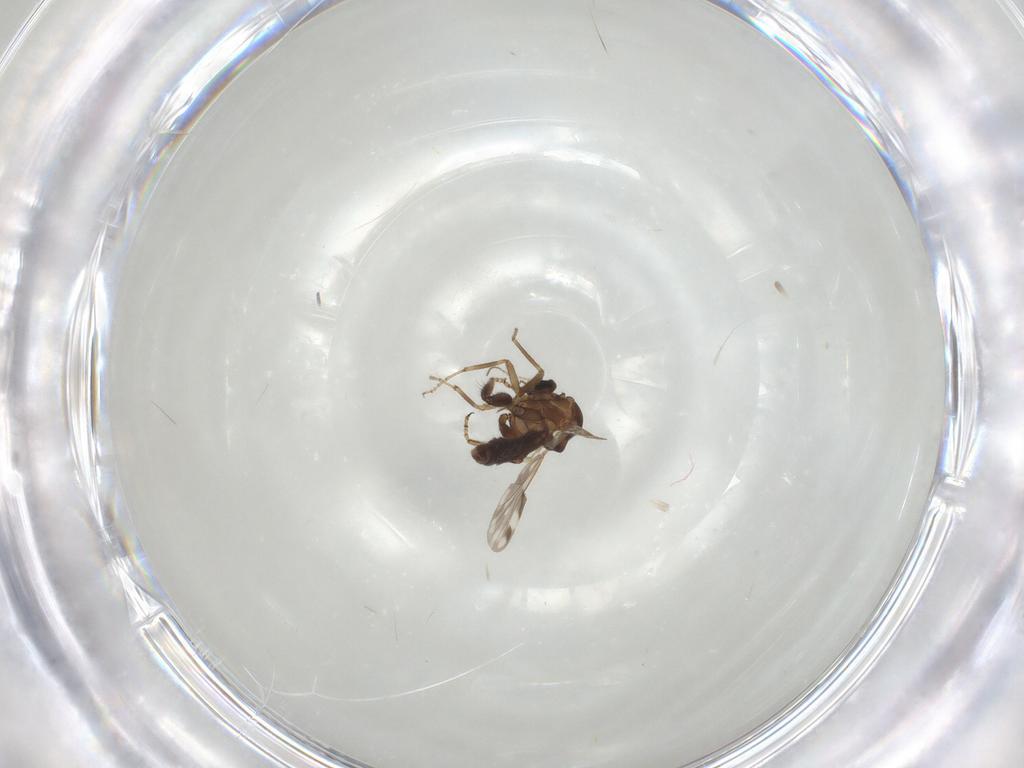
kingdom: Animalia
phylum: Arthropoda
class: Insecta
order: Diptera
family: Ceratopogonidae
